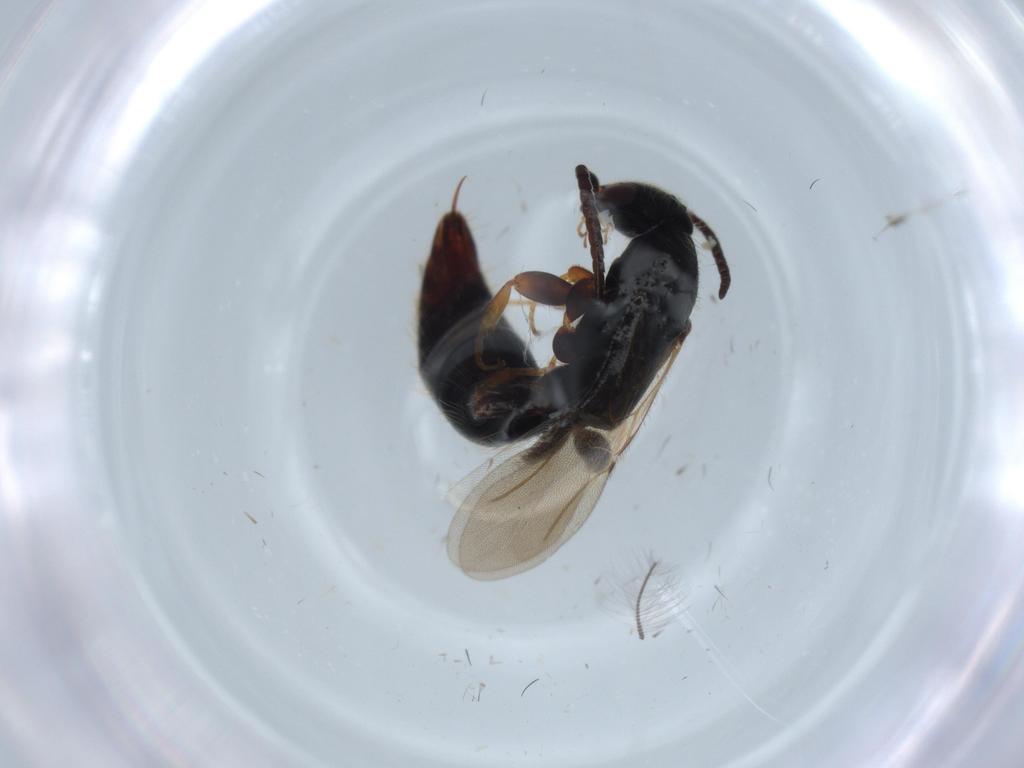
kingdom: Animalia
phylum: Arthropoda
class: Insecta
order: Hymenoptera
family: Bethylidae
